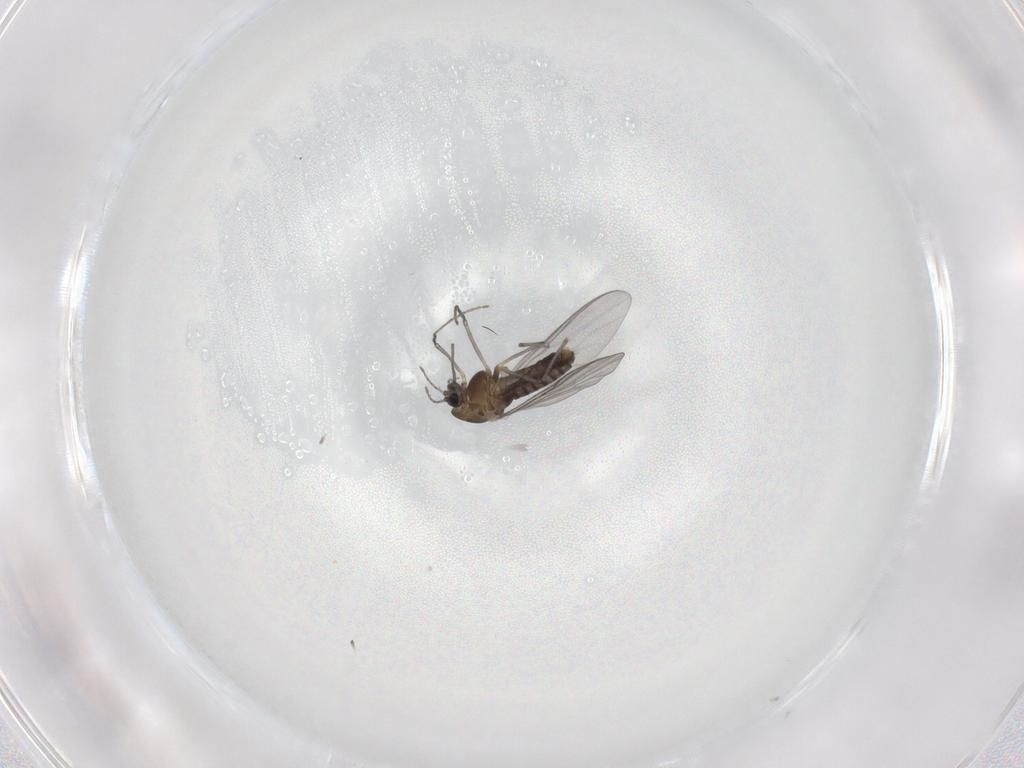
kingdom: Animalia
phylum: Arthropoda
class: Insecta
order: Diptera
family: Chironomidae
